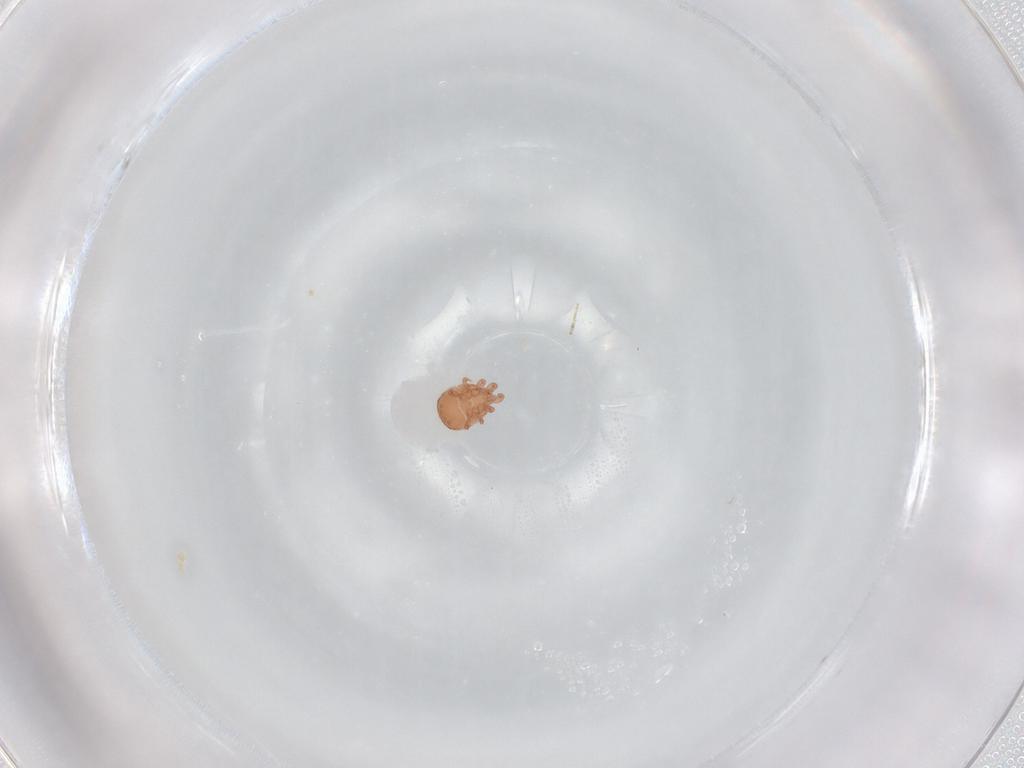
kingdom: Animalia
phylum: Arthropoda
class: Arachnida
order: Mesostigmata
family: Zerconidae
